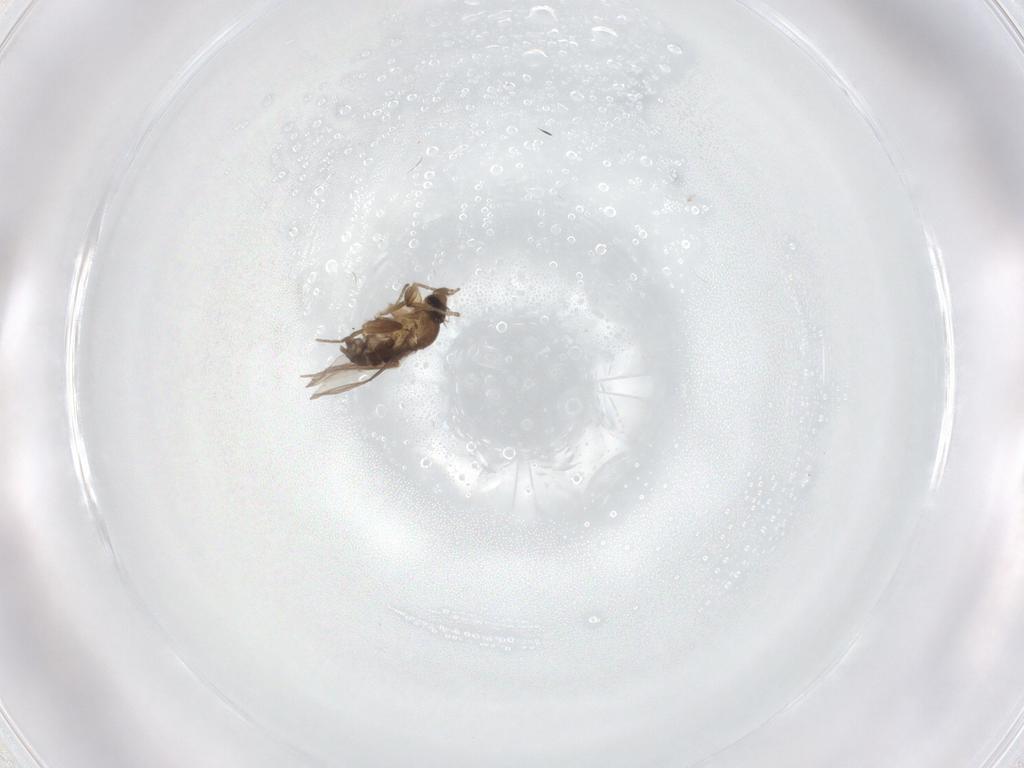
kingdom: Animalia
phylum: Arthropoda
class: Insecta
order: Diptera
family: Phoridae
